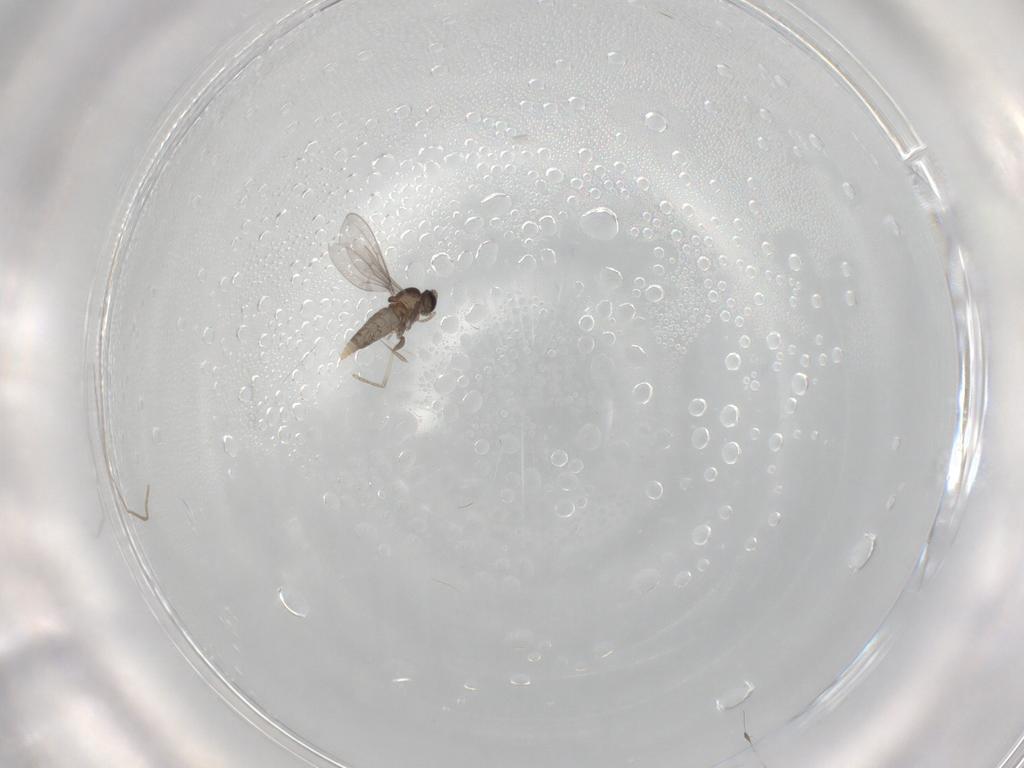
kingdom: Animalia
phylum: Arthropoda
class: Insecta
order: Diptera
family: Cecidomyiidae
